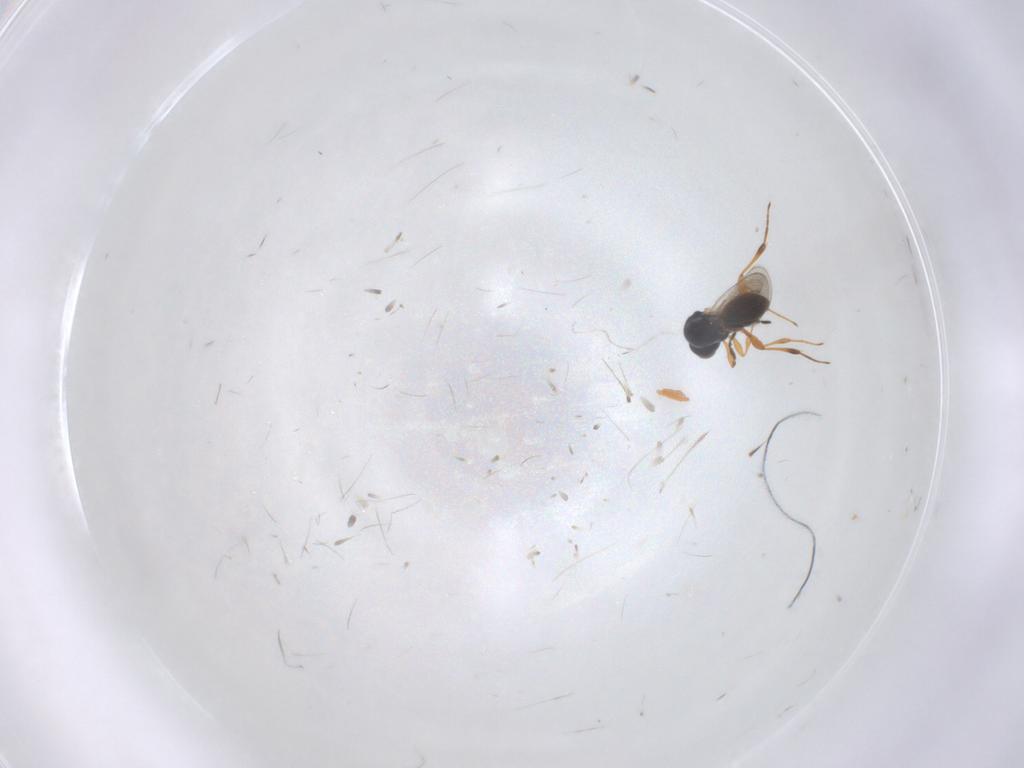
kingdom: Animalia
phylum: Arthropoda
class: Insecta
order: Hymenoptera
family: Platygastridae
